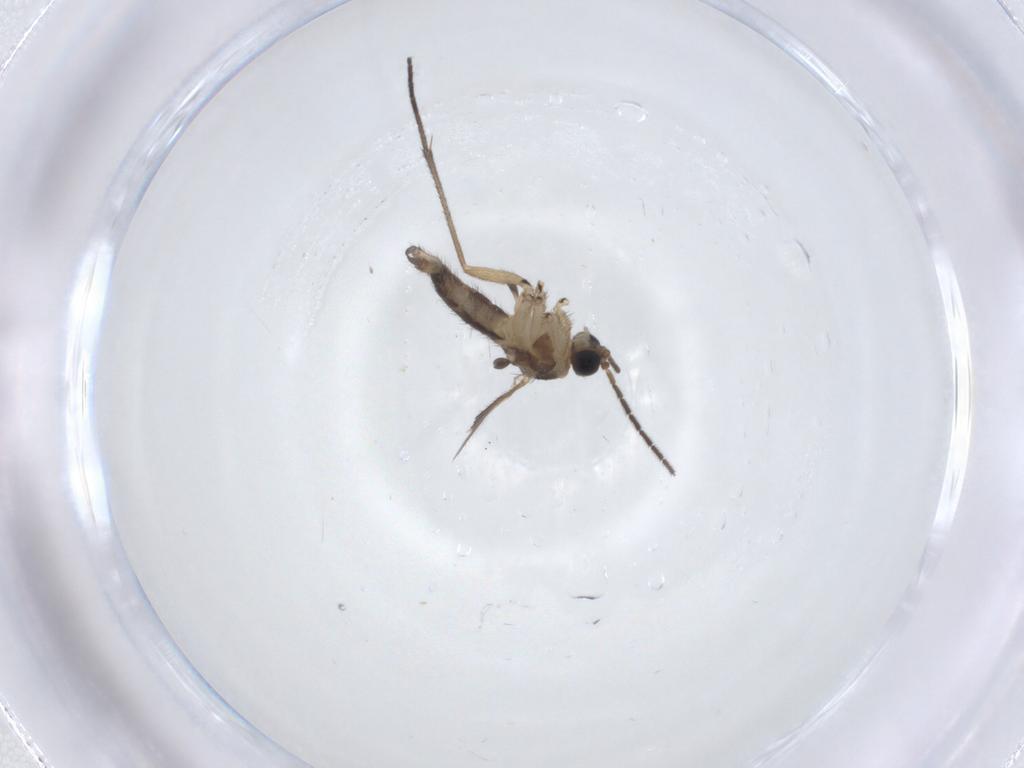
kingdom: Animalia
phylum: Arthropoda
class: Insecta
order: Diptera
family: Sciaridae
